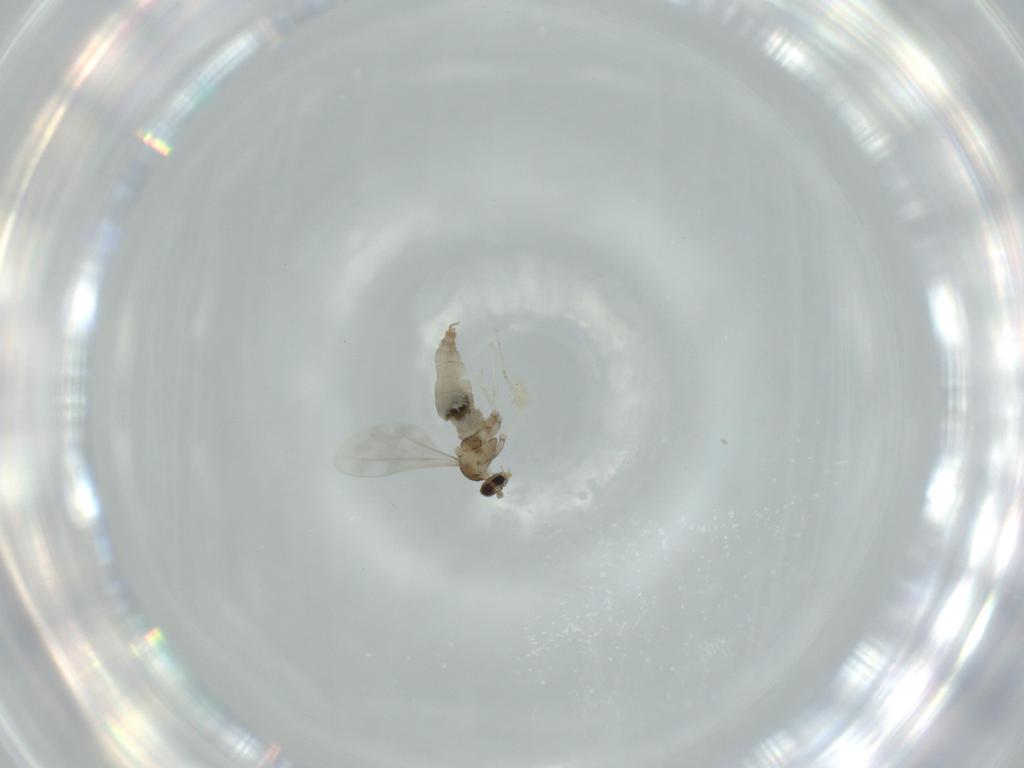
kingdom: Animalia
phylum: Arthropoda
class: Insecta
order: Diptera
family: Cecidomyiidae
